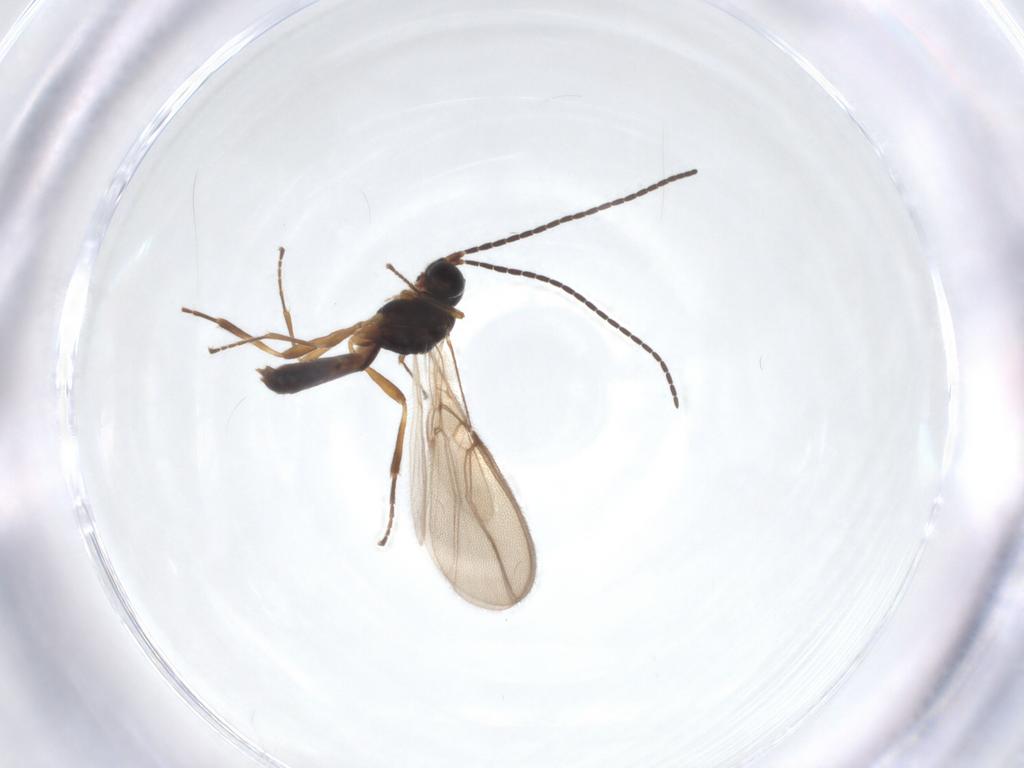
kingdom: Animalia
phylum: Arthropoda
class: Insecta
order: Hymenoptera
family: Braconidae
